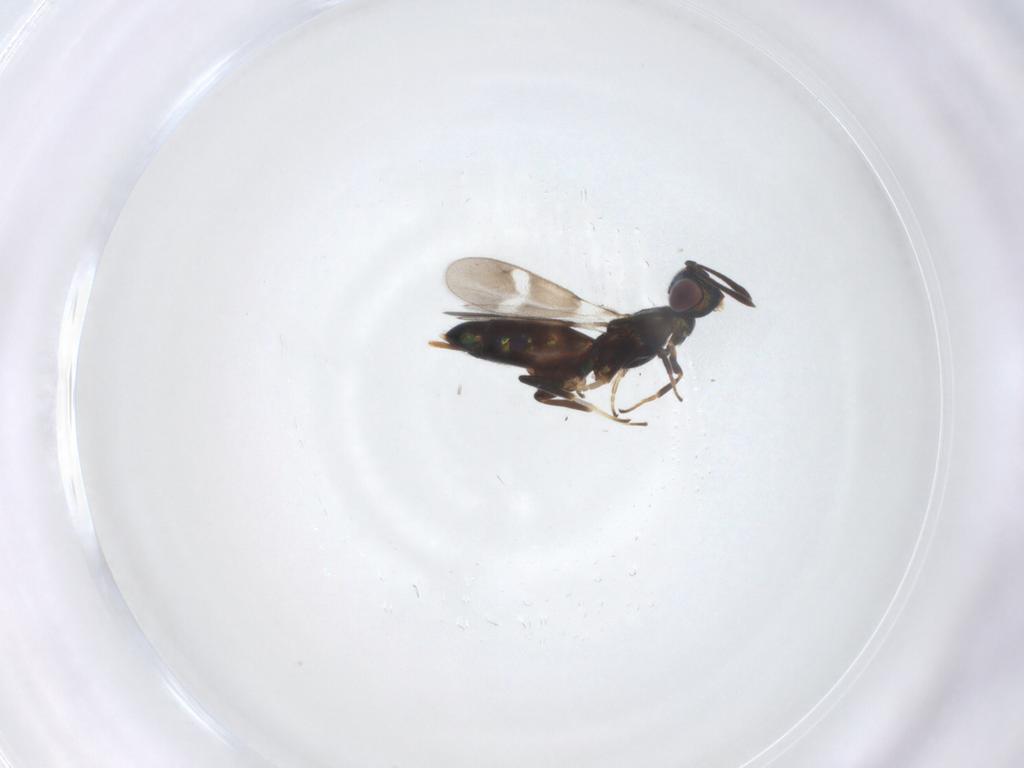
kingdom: Animalia
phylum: Arthropoda
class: Insecta
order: Hymenoptera
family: Eupelmidae
